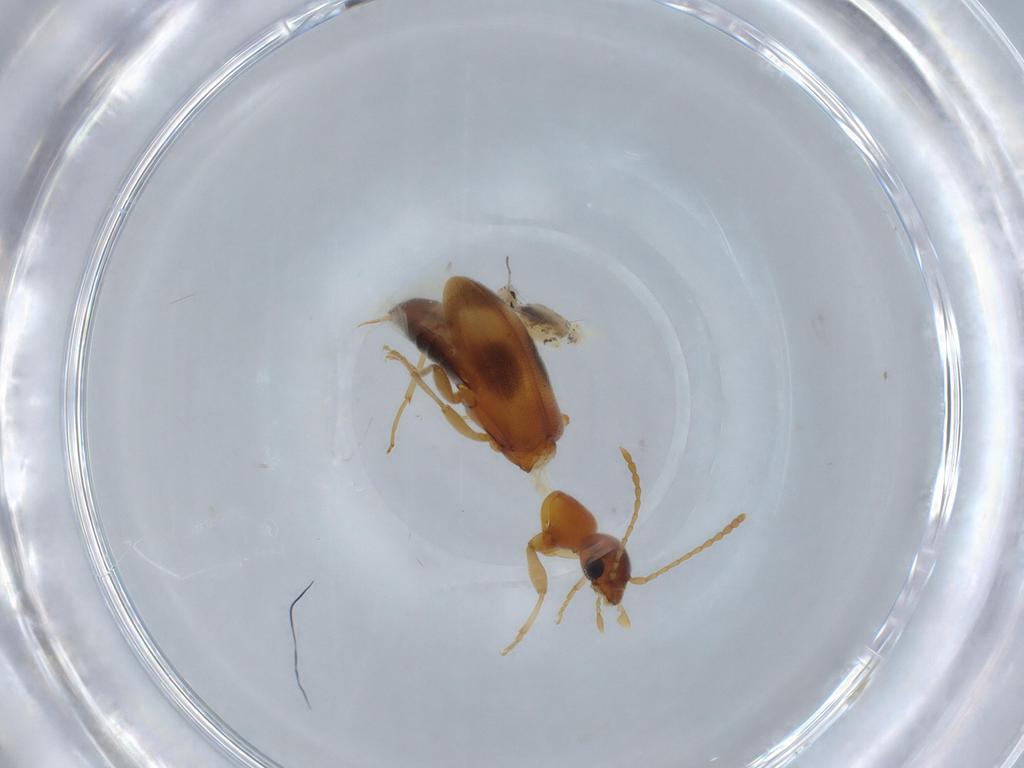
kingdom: Animalia
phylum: Arthropoda
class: Insecta
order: Coleoptera
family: Anthicidae
